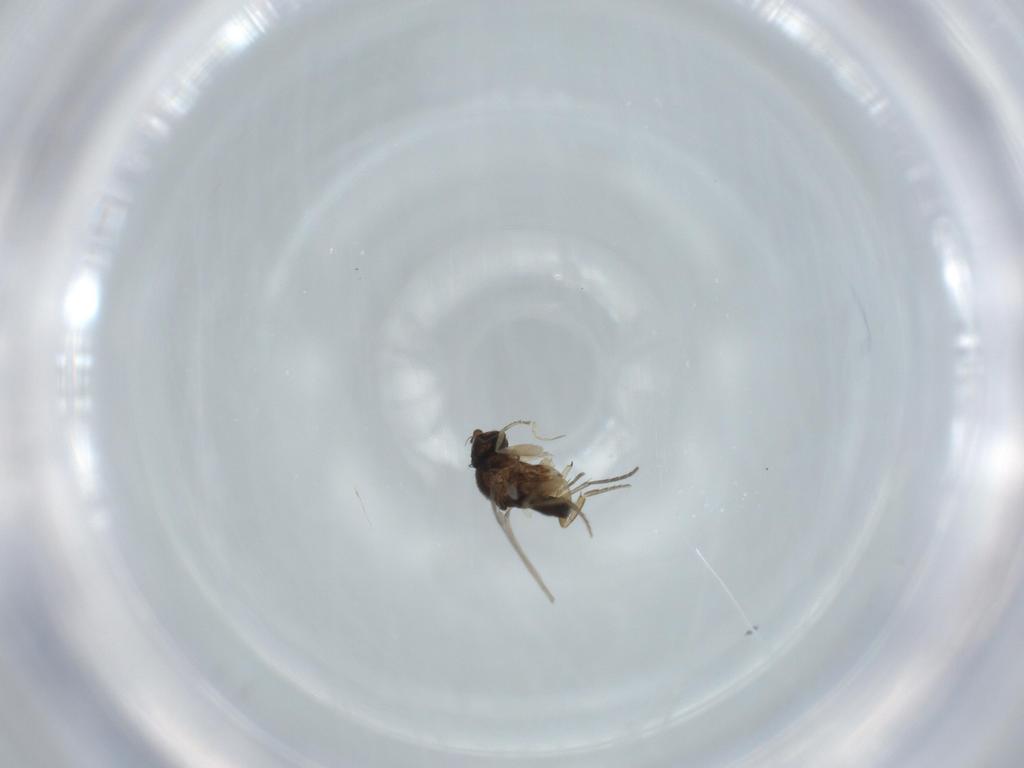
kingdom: Animalia
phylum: Arthropoda
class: Insecta
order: Diptera
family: Chironomidae
